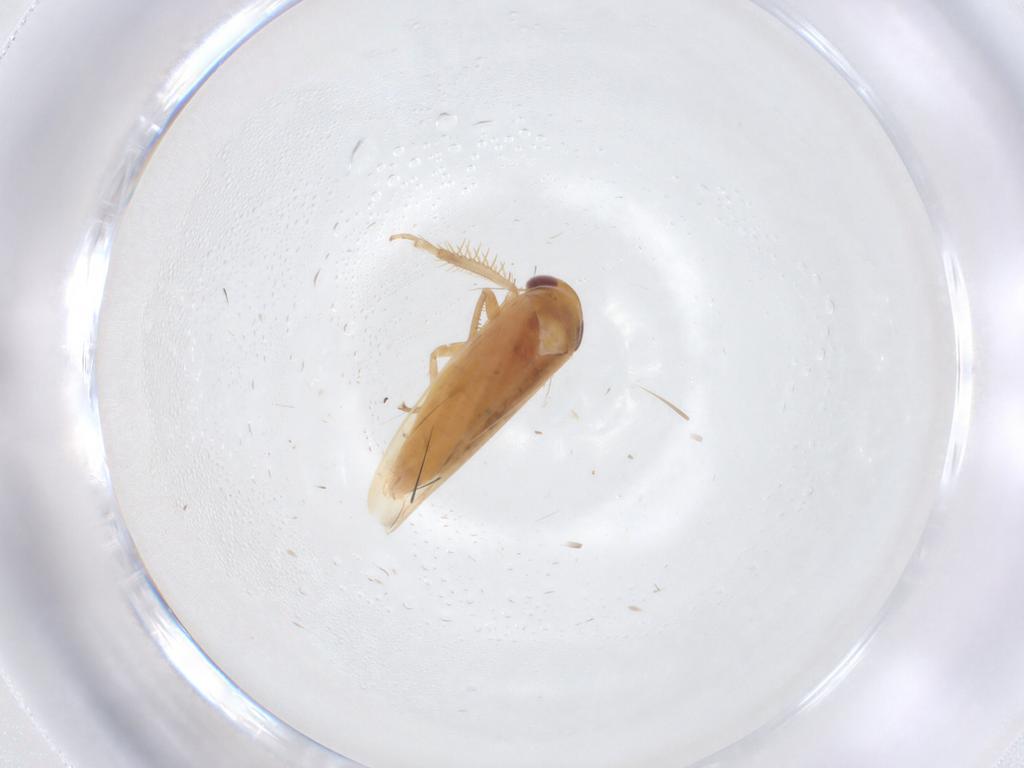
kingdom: Animalia
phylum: Arthropoda
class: Insecta
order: Hemiptera
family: Cicadellidae
